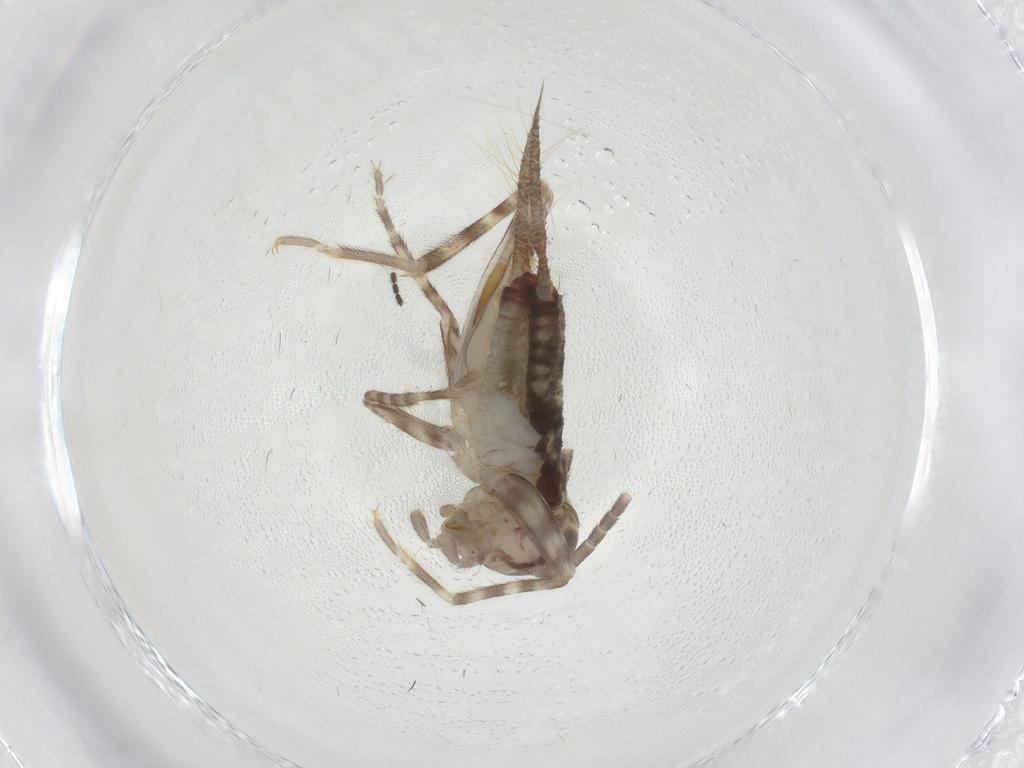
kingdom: Animalia
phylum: Arthropoda
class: Insecta
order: Orthoptera
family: Gryllidae
